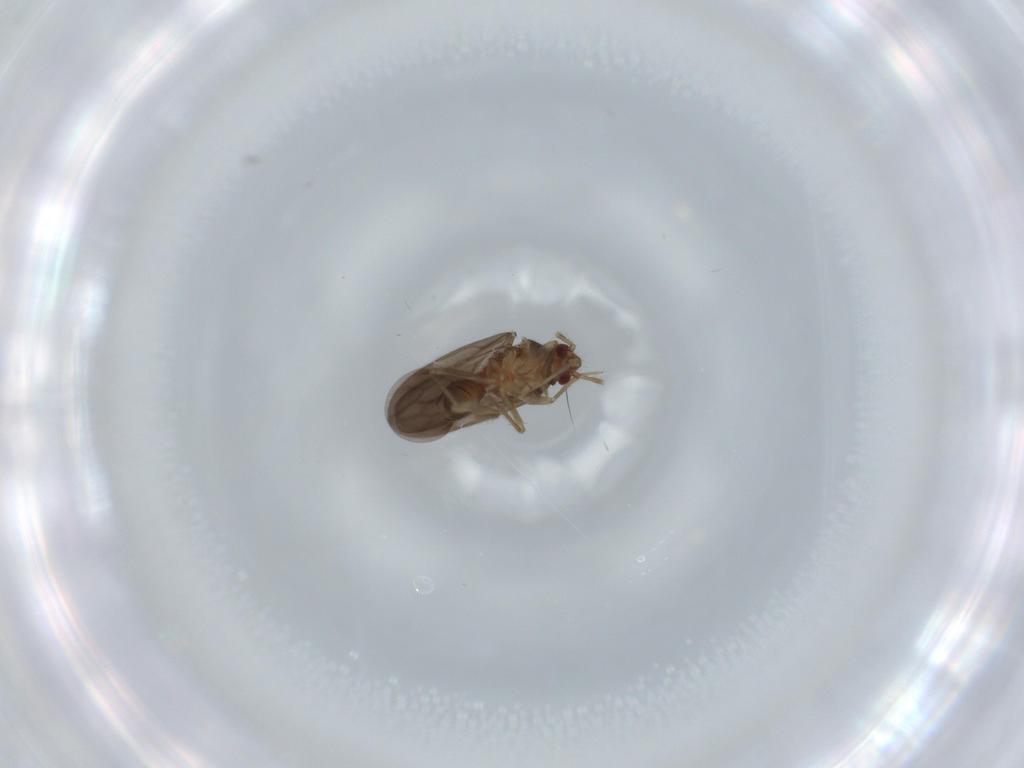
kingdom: Animalia
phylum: Arthropoda
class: Insecta
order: Hemiptera
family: Ceratocombidae
